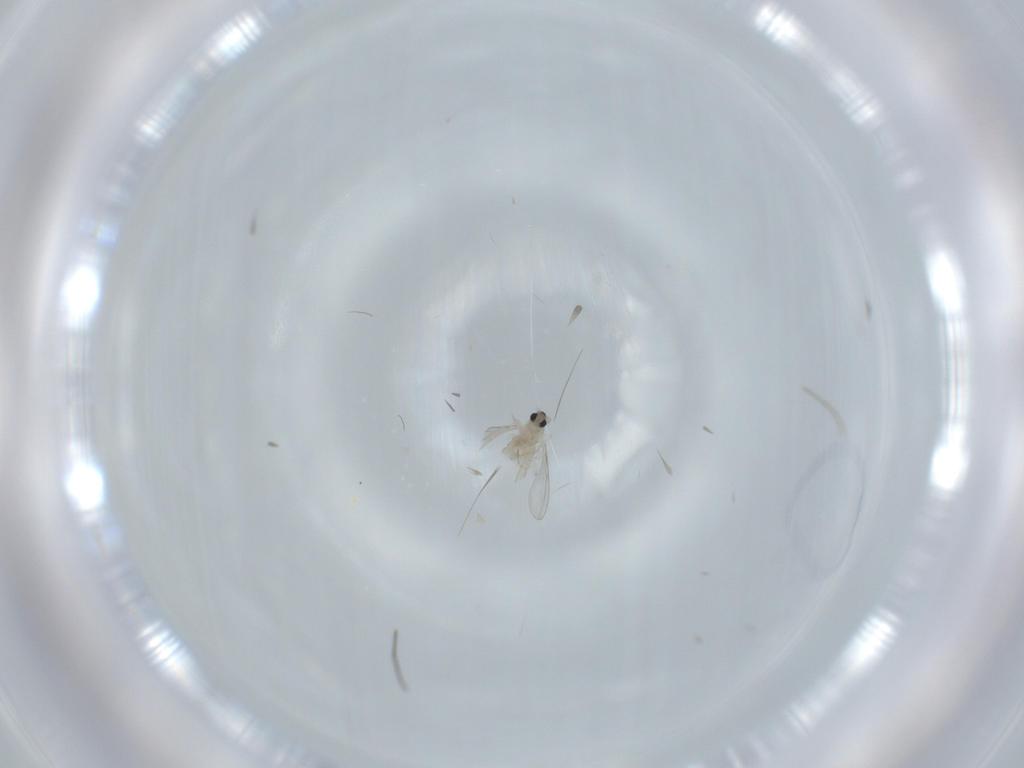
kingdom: Animalia
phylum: Arthropoda
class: Insecta
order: Diptera
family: Cecidomyiidae
